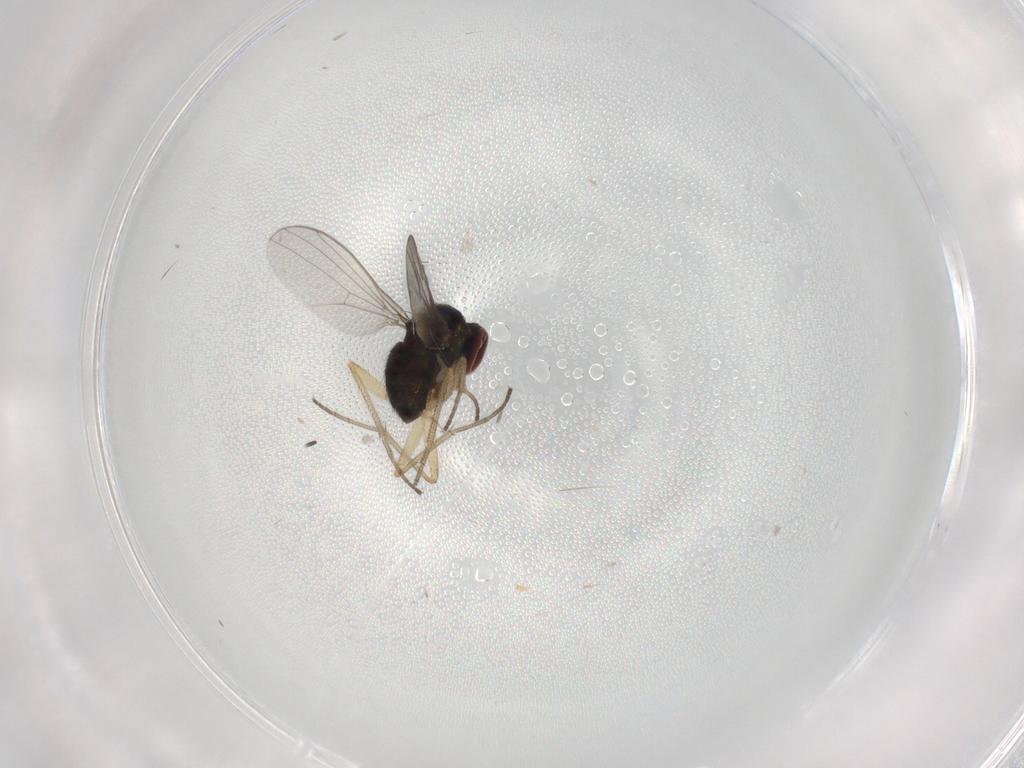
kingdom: Animalia
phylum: Arthropoda
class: Insecta
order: Diptera
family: Dolichopodidae
